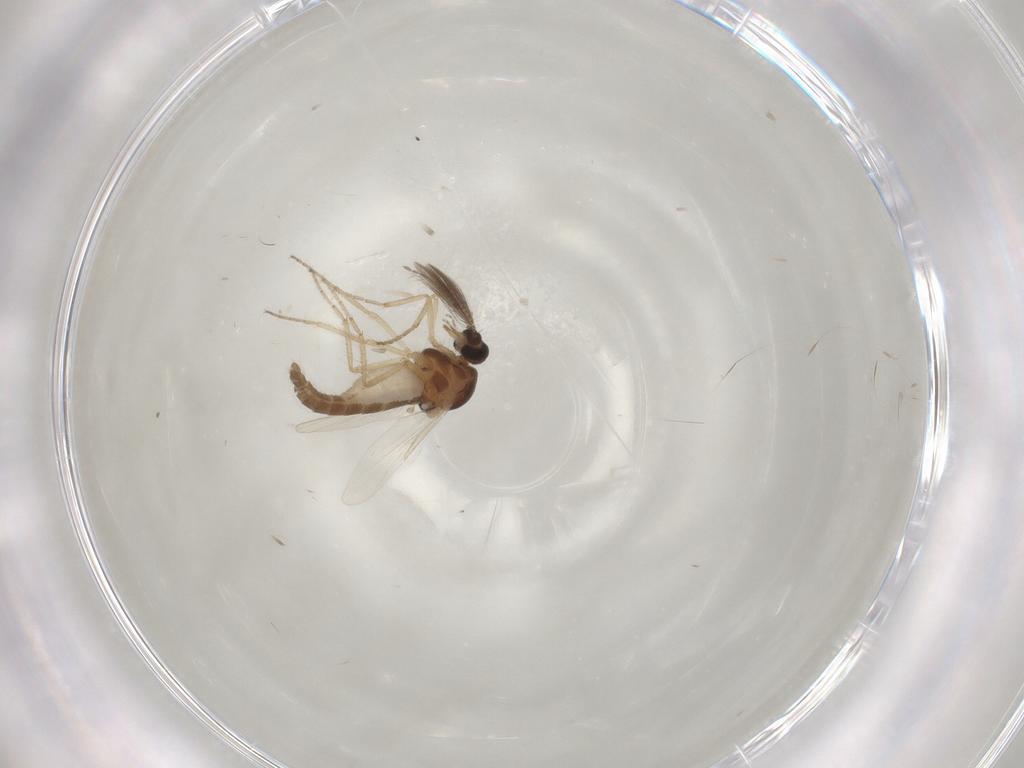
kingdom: Animalia
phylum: Arthropoda
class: Insecta
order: Diptera
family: Ceratopogonidae
